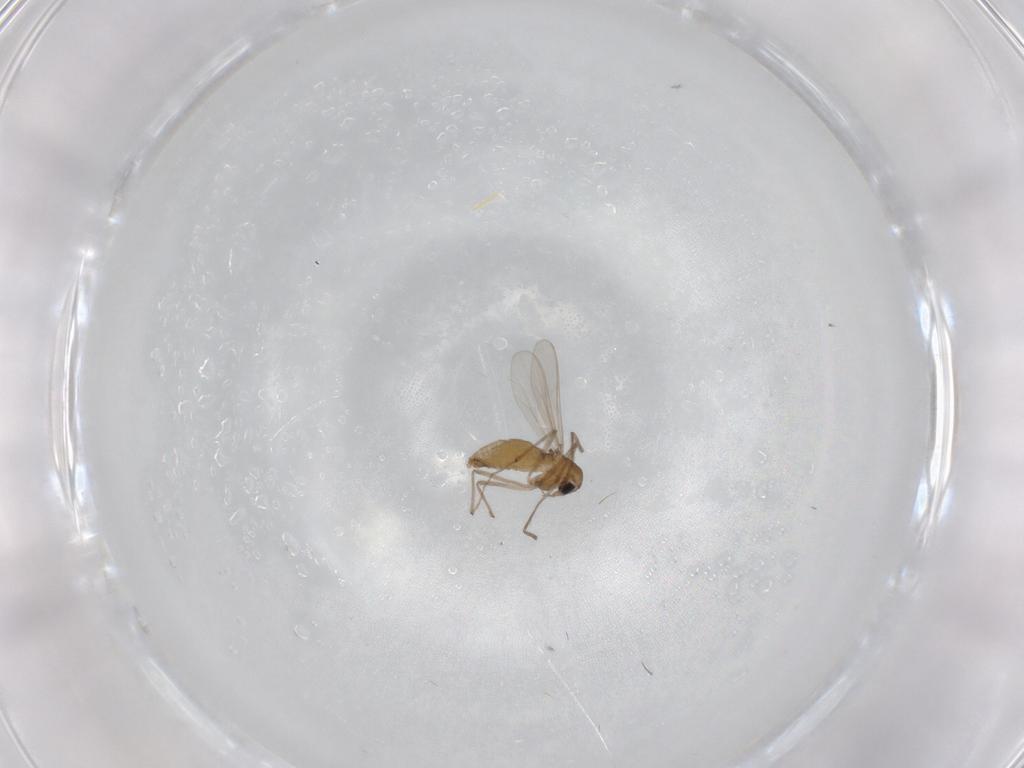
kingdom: Animalia
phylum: Arthropoda
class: Insecta
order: Diptera
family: Chironomidae
